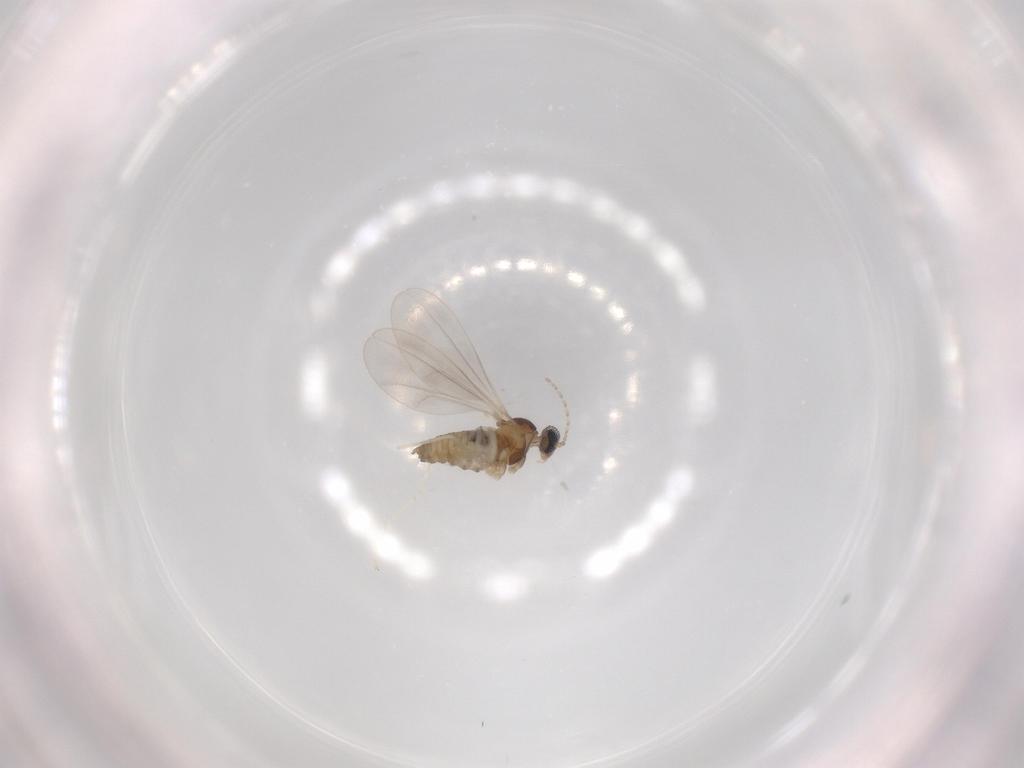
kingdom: Animalia
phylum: Arthropoda
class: Insecta
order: Diptera
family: Cecidomyiidae
